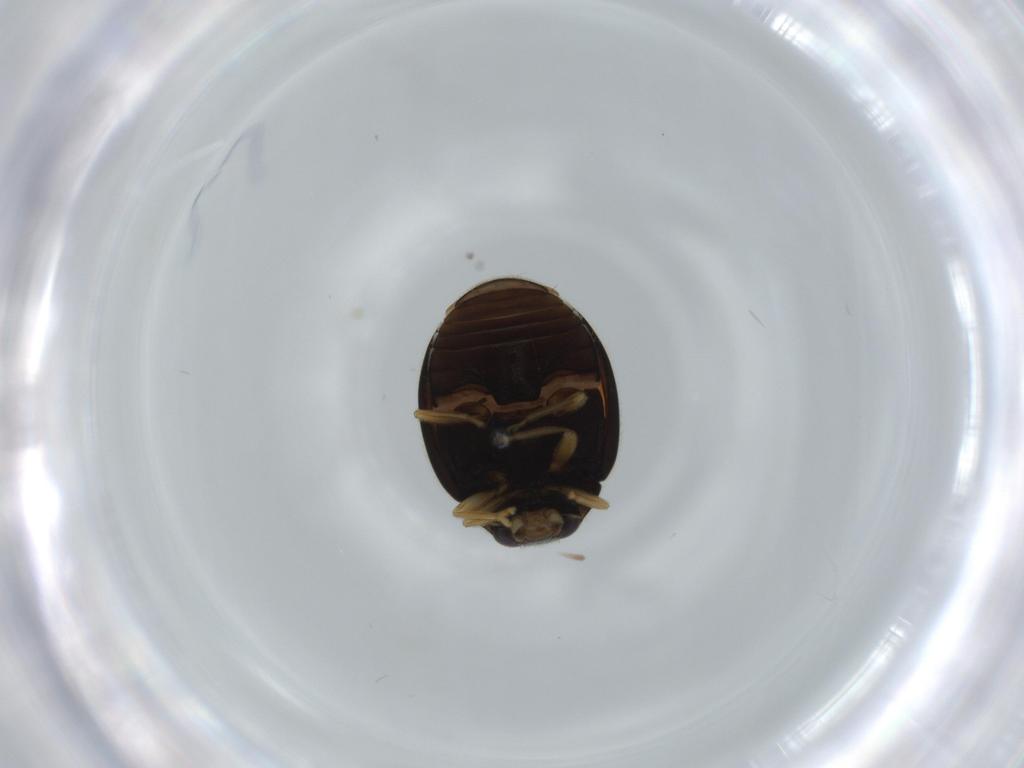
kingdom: Animalia
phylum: Arthropoda
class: Insecta
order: Coleoptera
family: Coccinellidae
